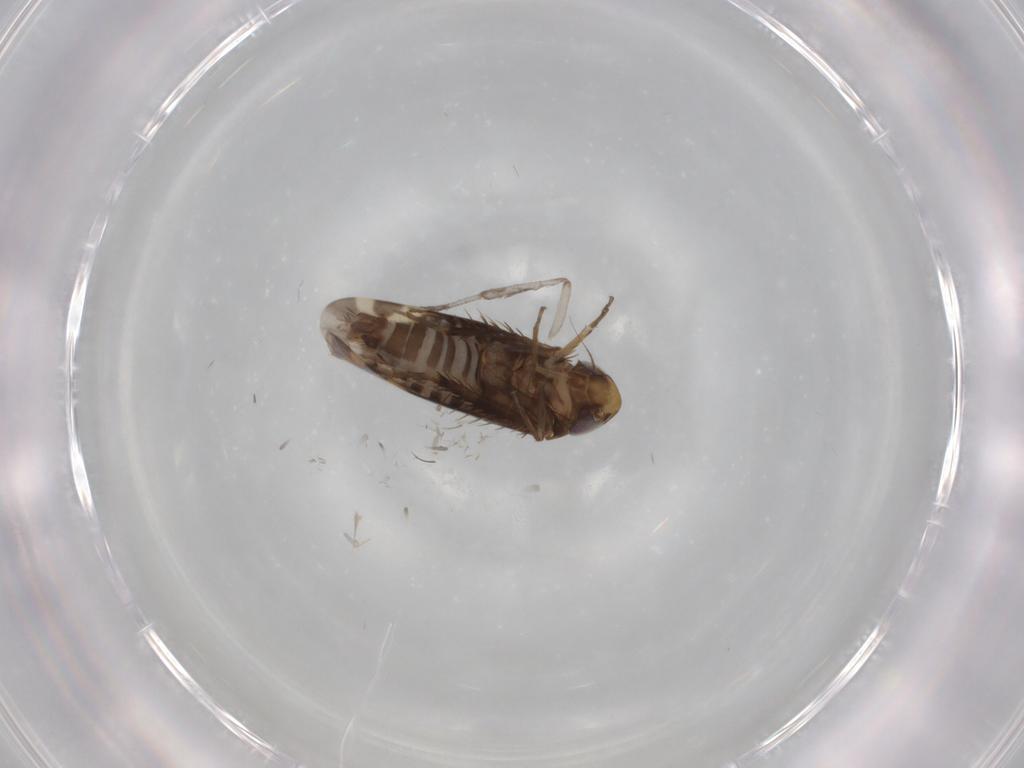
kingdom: Animalia
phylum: Arthropoda
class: Insecta
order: Hemiptera
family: Cicadellidae
